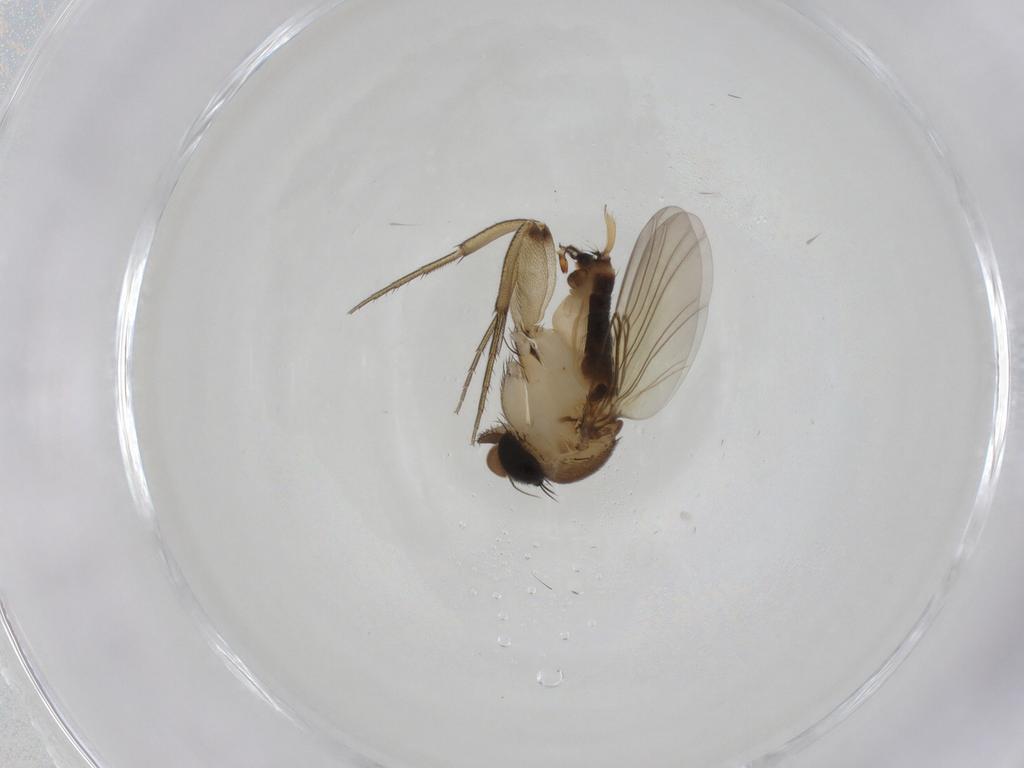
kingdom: Animalia
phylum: Arthropoda
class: Insecta
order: Diptera
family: Phoridae
